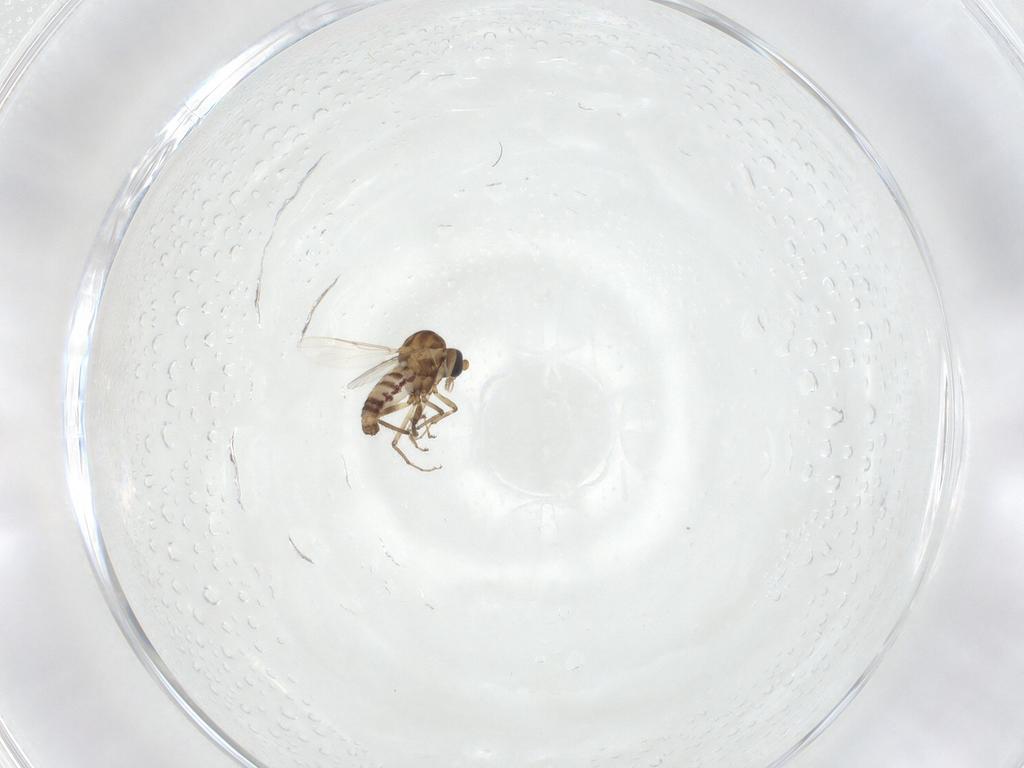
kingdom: Animalia
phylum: Arthropoda
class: Insecta
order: Diptera
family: Ceratopogonidae
